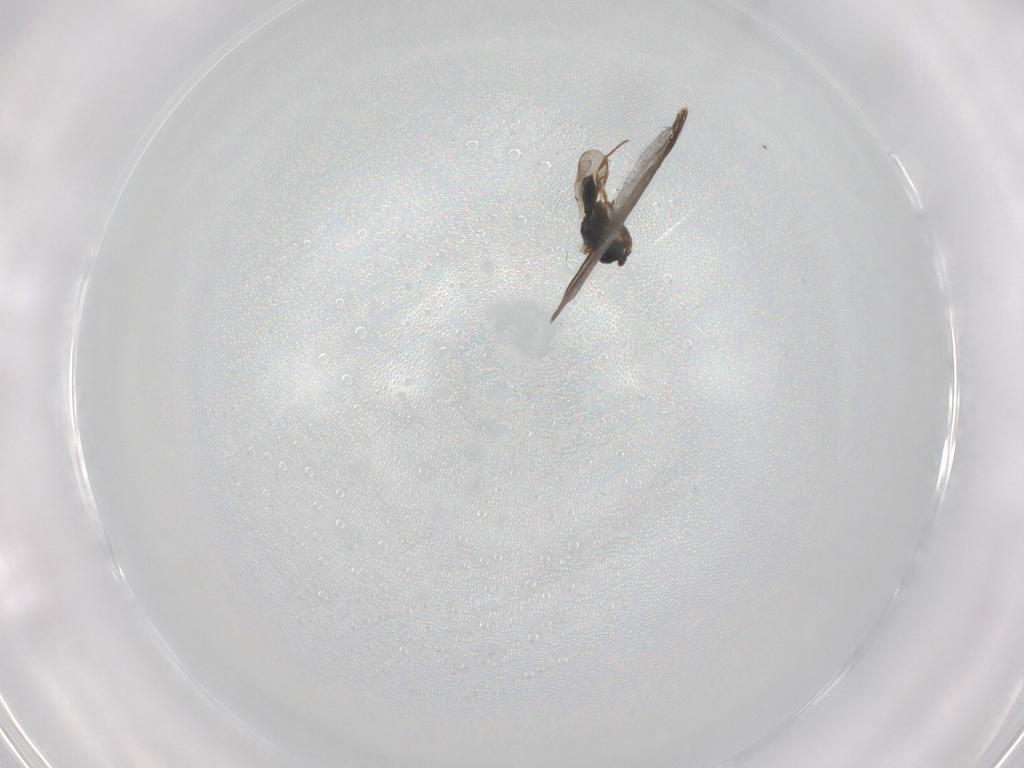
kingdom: Animalia
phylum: Arthropoda
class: Insecta
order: Hymenoptera
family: Scelionidae
